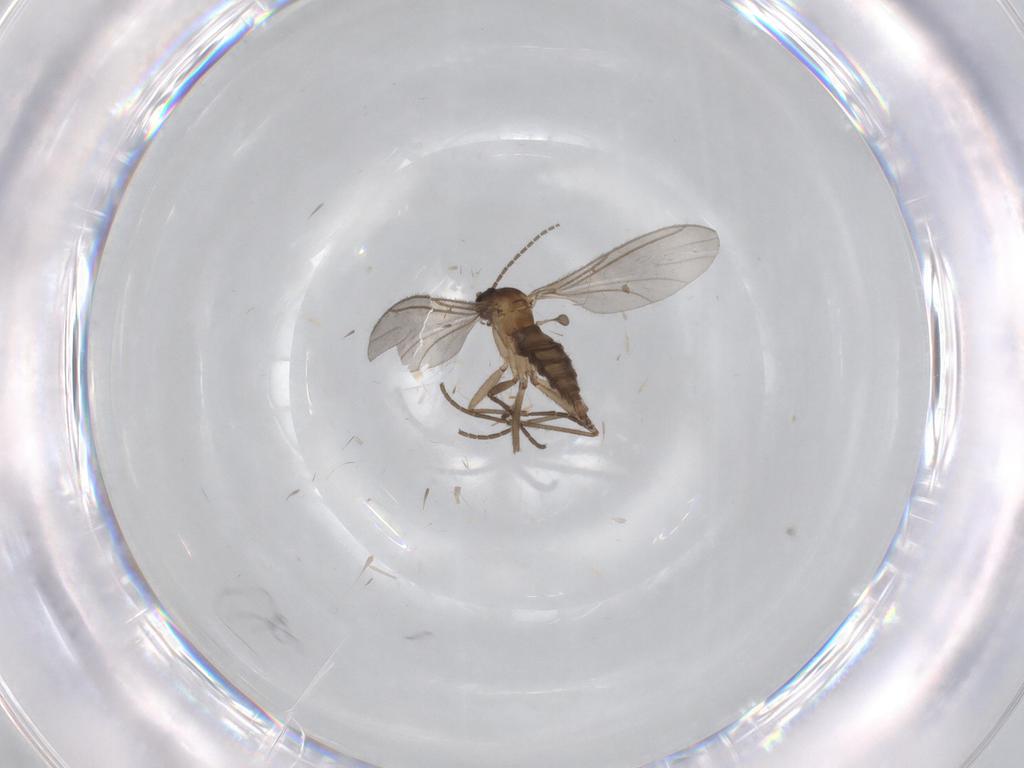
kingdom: Animalia
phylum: Arthropoda
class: Insecta
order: Diptera
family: Sciaridae
